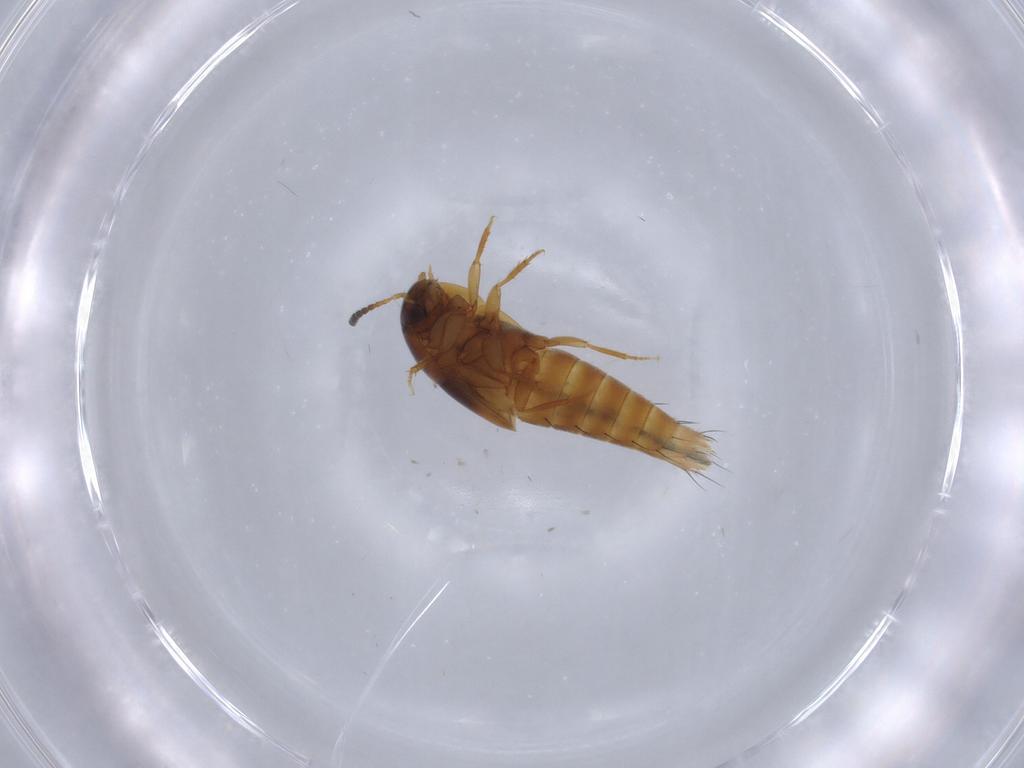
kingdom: Animalia
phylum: Arthropoda
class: Insecta
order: Coleoptera
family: Staphylinidae
